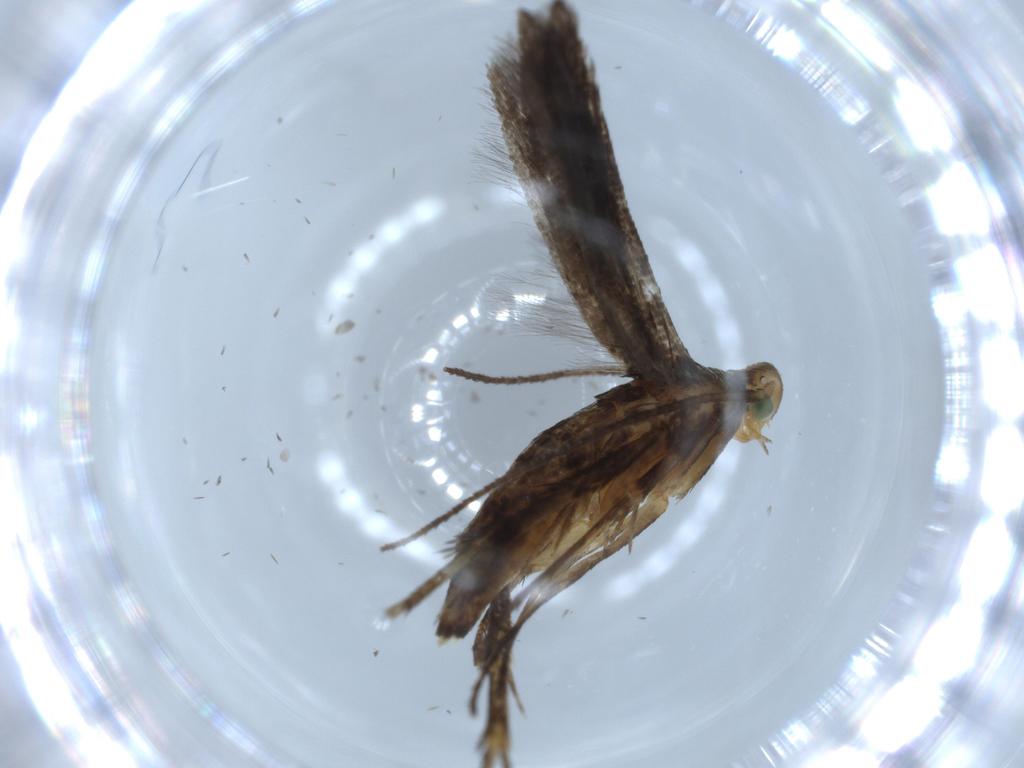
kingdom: Animalia
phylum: Arthropoda
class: Insecta
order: Lepidoptera
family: Heliodinidae
